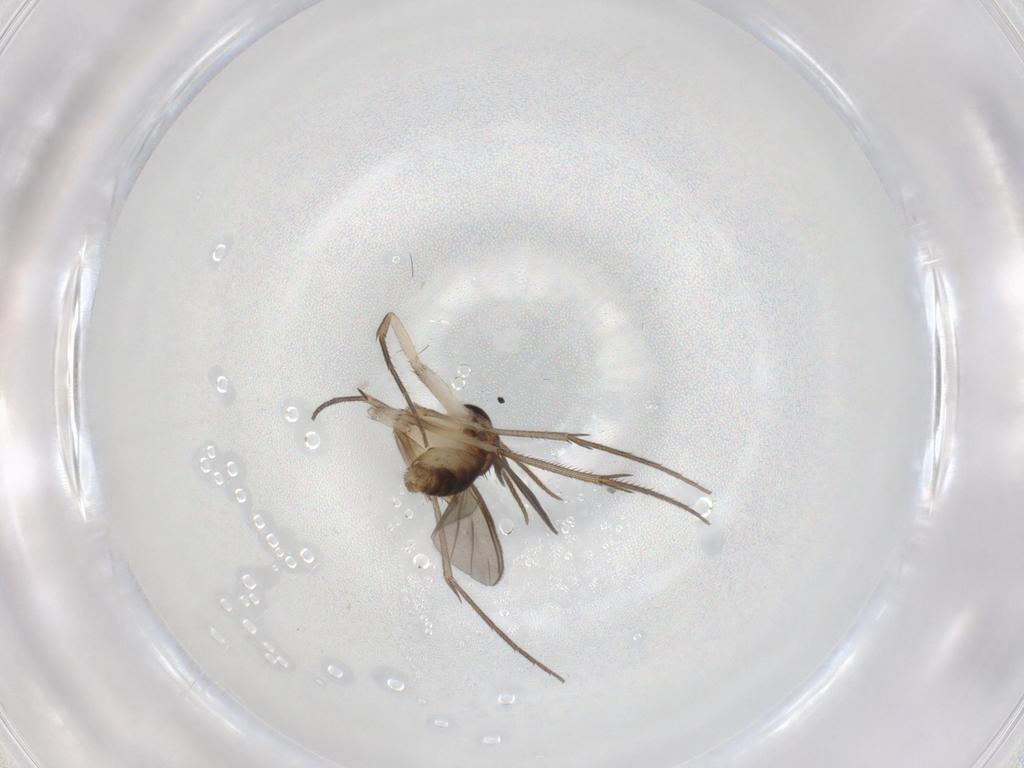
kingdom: Animalia
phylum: Arthropoda
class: Insecta
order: Diptera
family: Mycetophilidae
